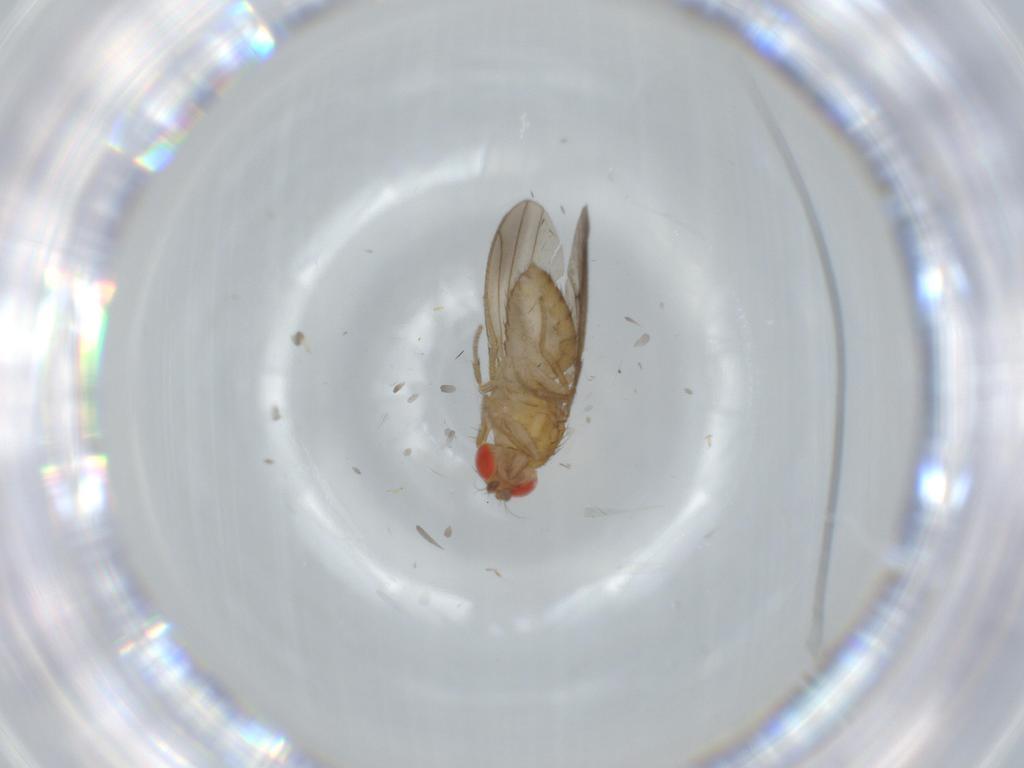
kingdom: Animalia
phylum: Arthropoda
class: Insecta
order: Diptera
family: Drosophilidae
